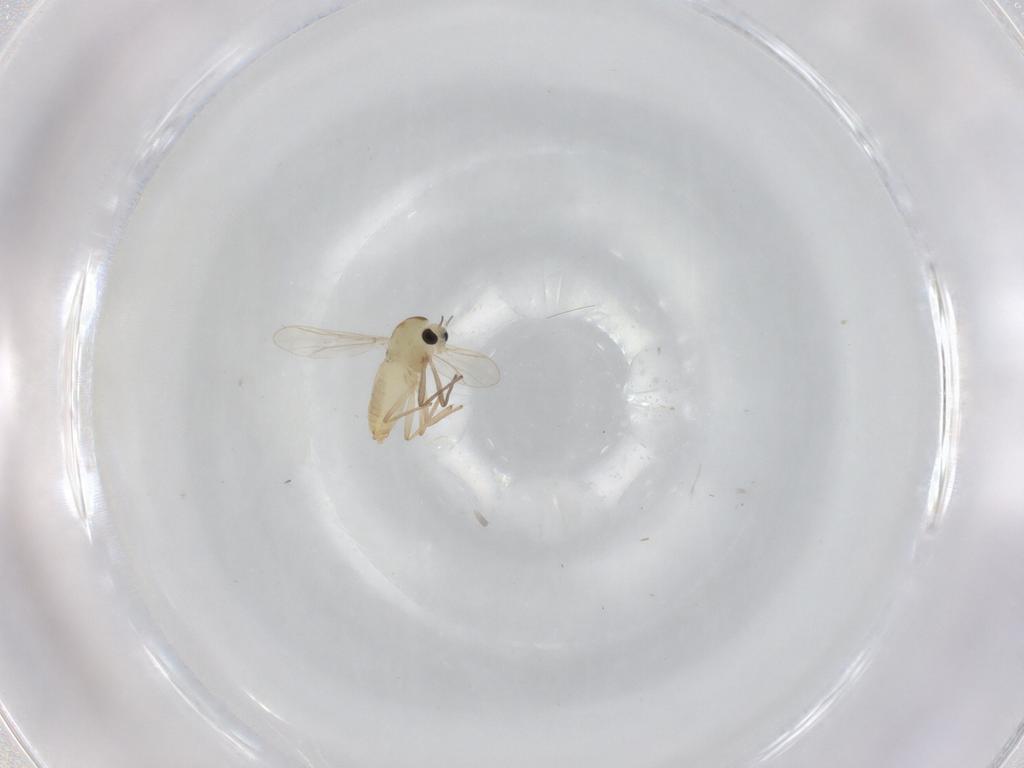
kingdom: Animalia
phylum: Arthropoda
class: Insecta
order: Diptera
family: Chironomidae
